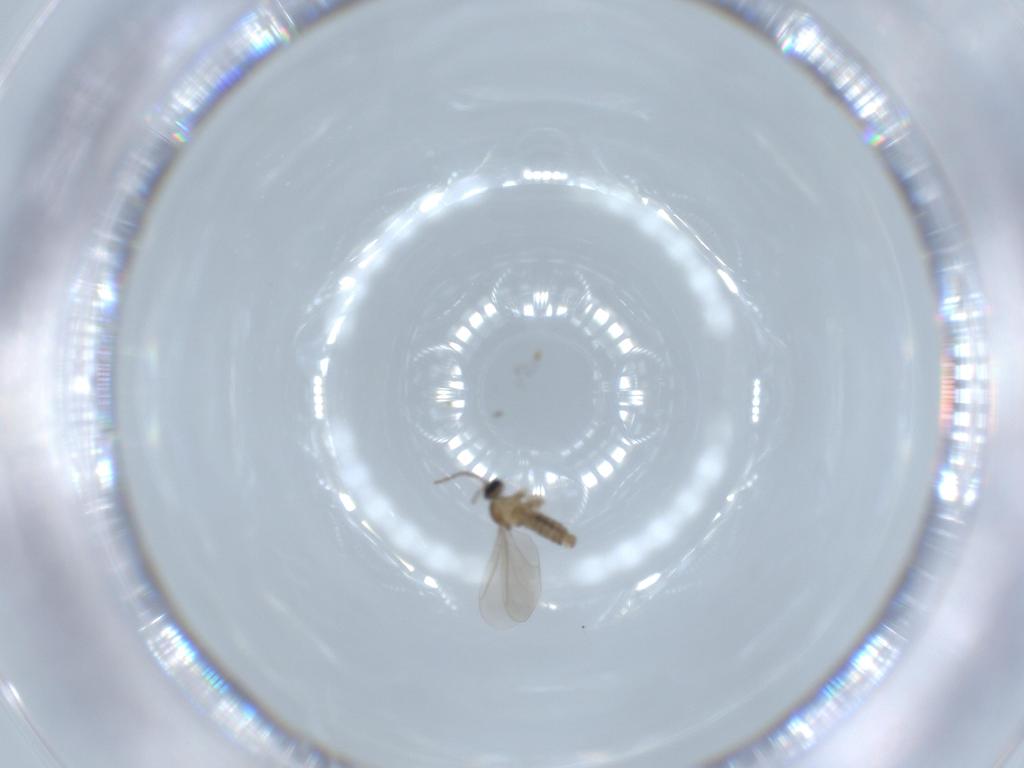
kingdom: Animalia
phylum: Arthropoda
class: Insecta
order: Diptera
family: Cecidomyiidae
